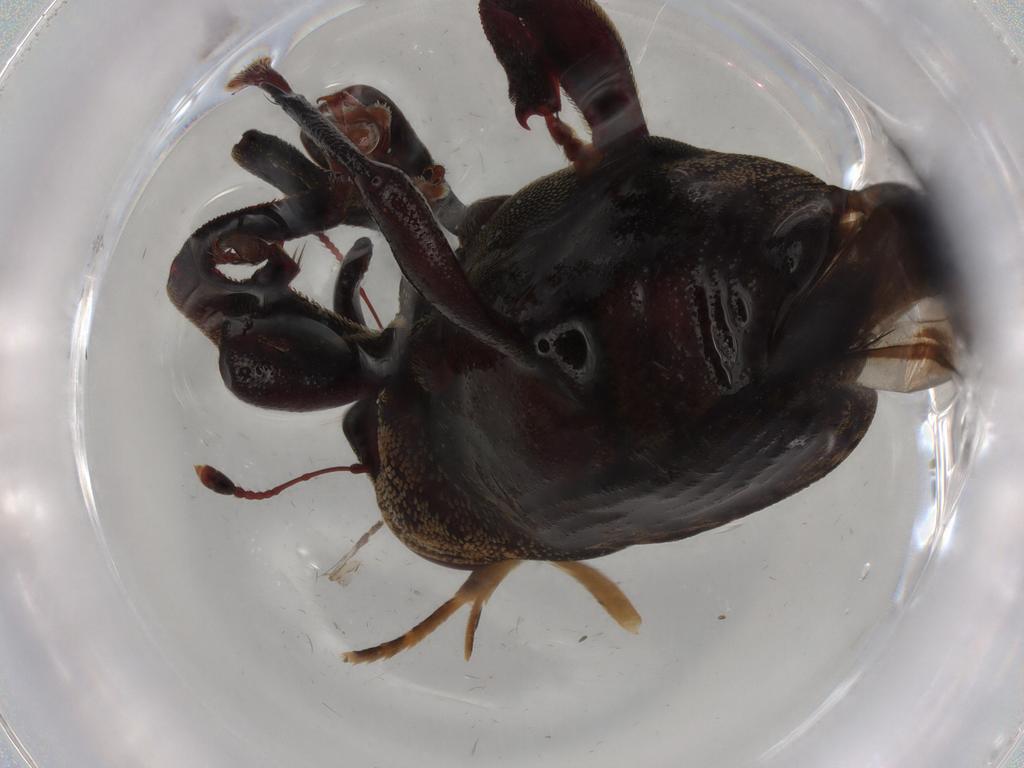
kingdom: Animalia
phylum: Arthropoda
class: Insecta
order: Coleoptera
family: Curculionidae
